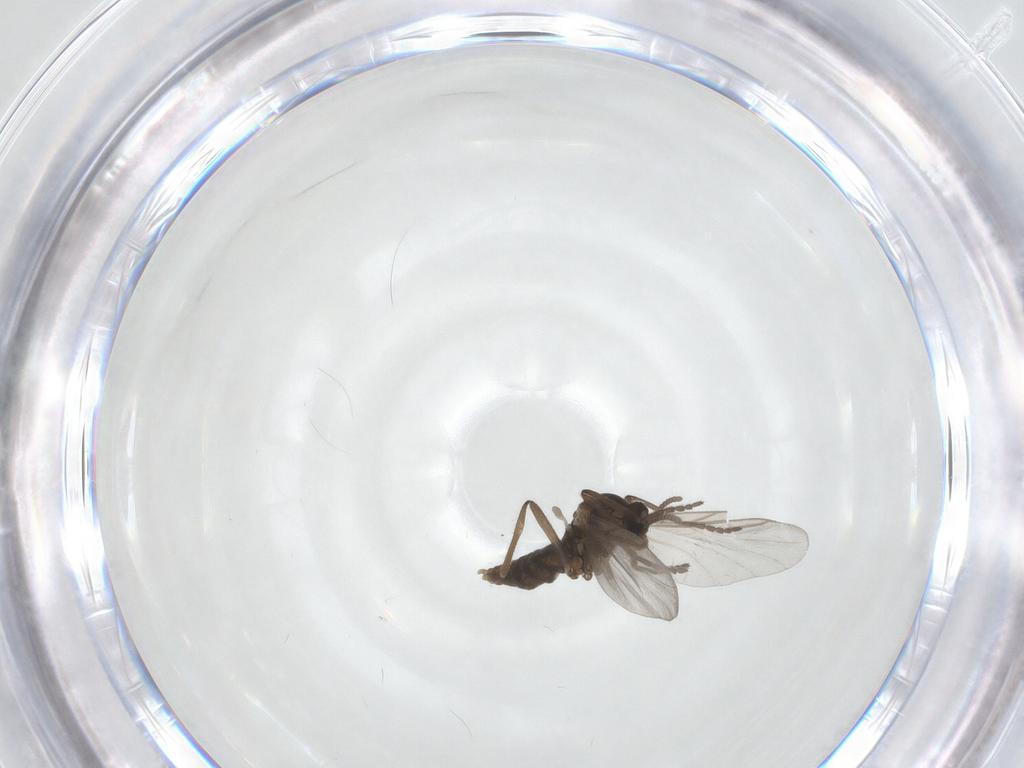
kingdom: Animalia
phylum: Arthropoda
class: Insecta
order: Diptera
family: Cecidomyiidae
